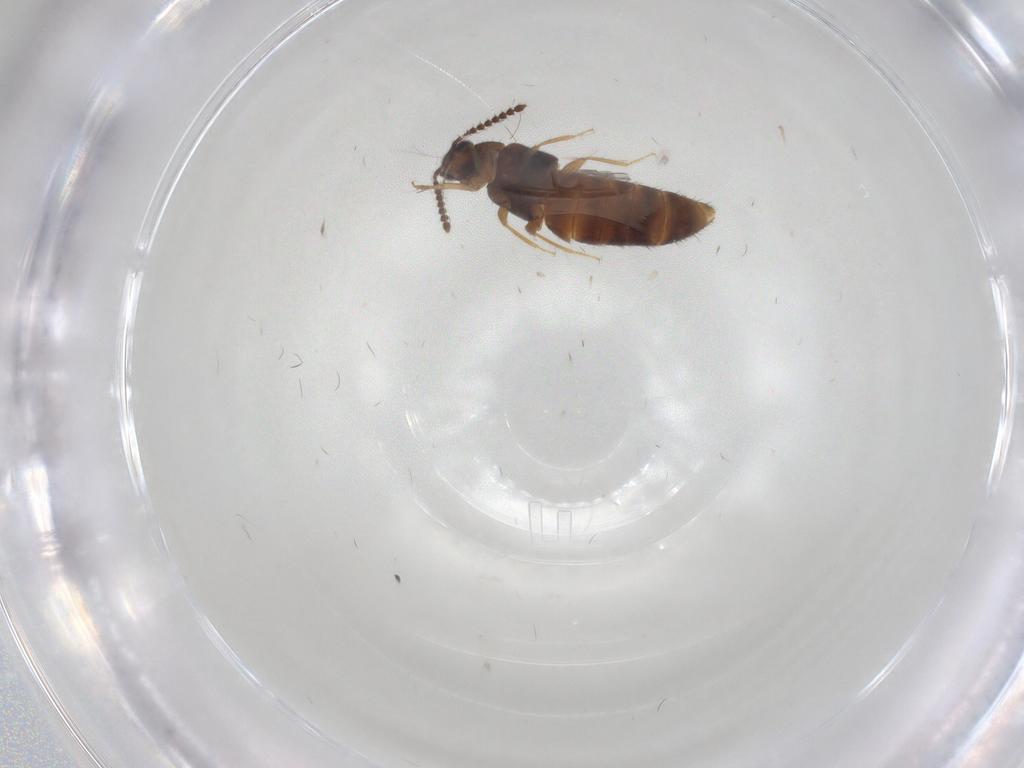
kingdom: Animalia
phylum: Arthropoda
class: Insecta
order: Coleoptera
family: Staphylinidae
